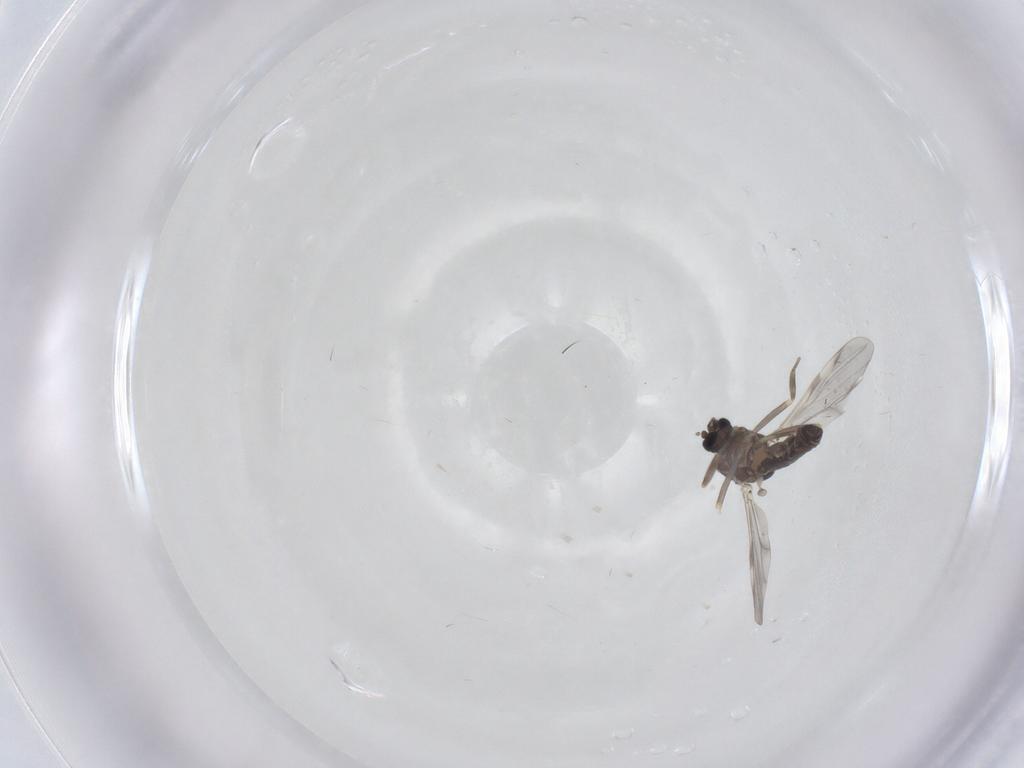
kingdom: Animalia
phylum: Arthropoda
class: Insecta
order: Diptera
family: Ceratopogonidae
